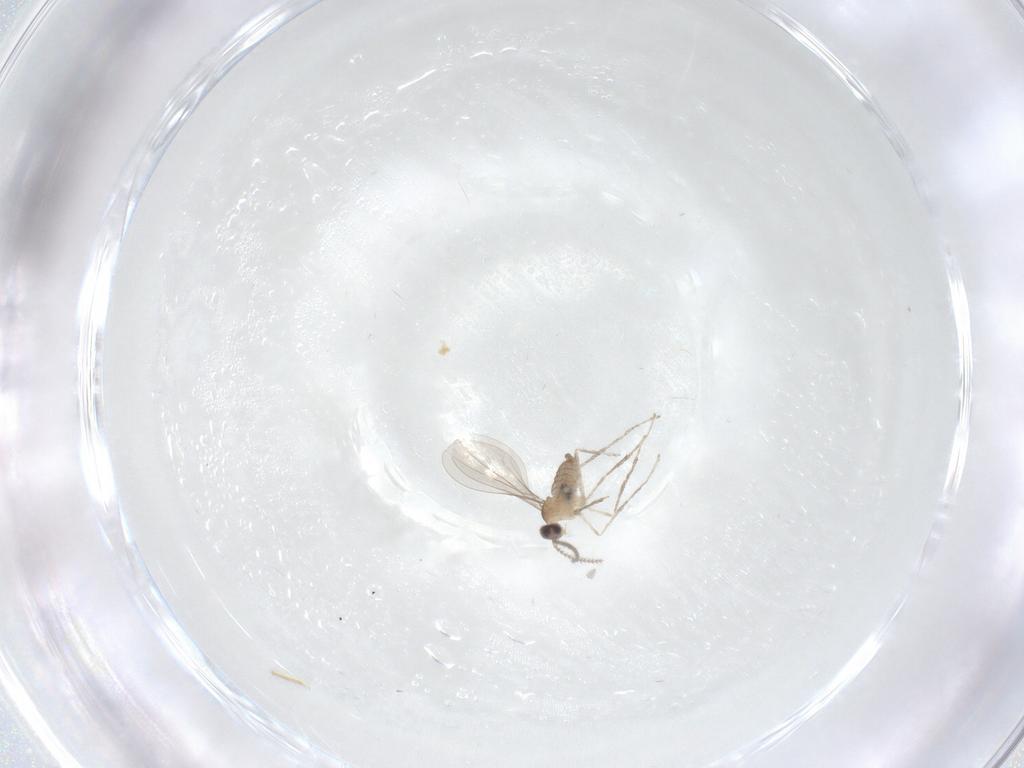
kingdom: Animalia
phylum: Arthropoda
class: Insecta
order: Diptera
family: Cecidomyiidae
